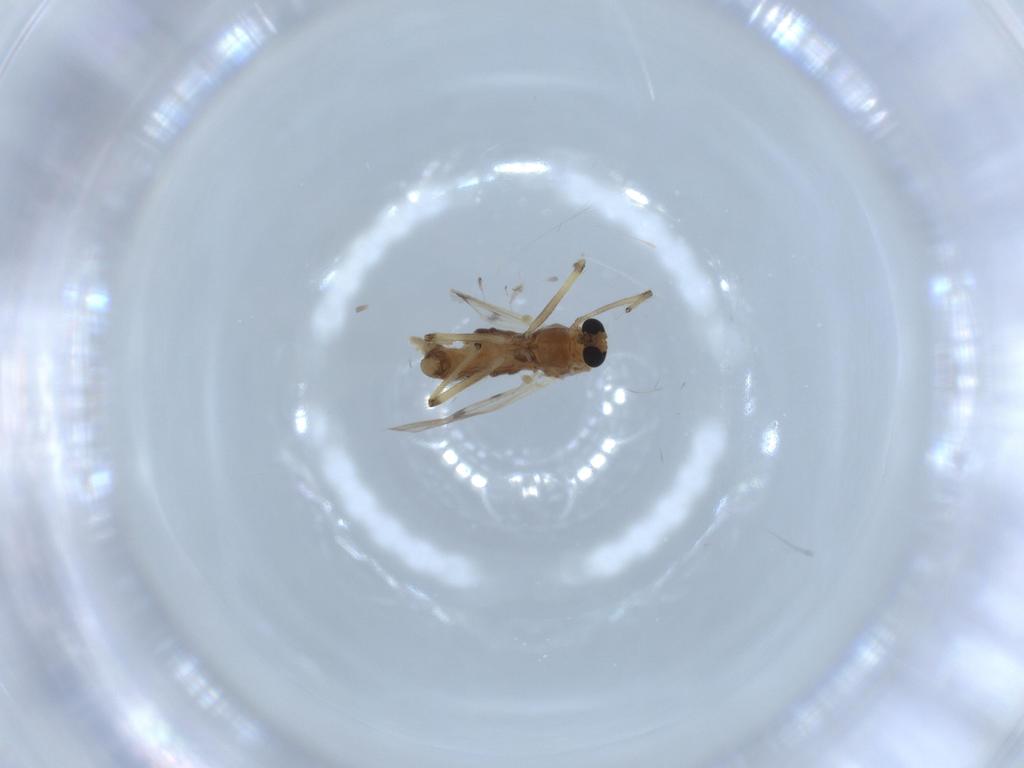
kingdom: Animalia
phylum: Arthropoda
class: Insecta
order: Diptera
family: Chironomidae
